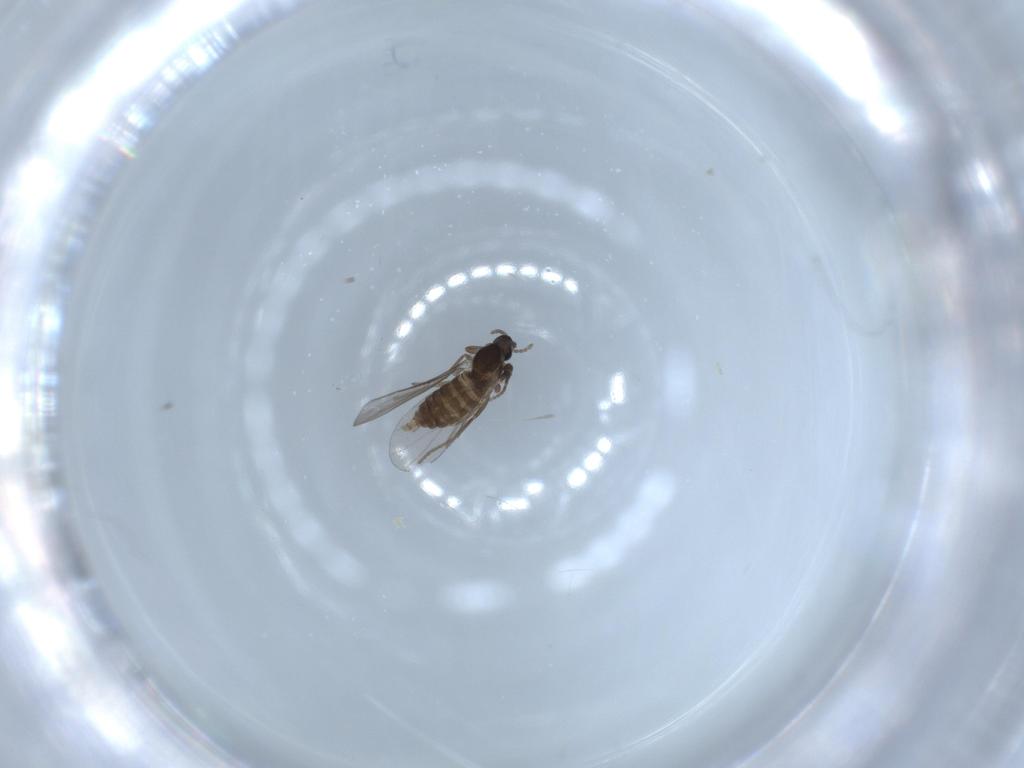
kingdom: Animalia
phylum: Arthropoda
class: Insecta
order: Diptera
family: Cecidomyiidae
